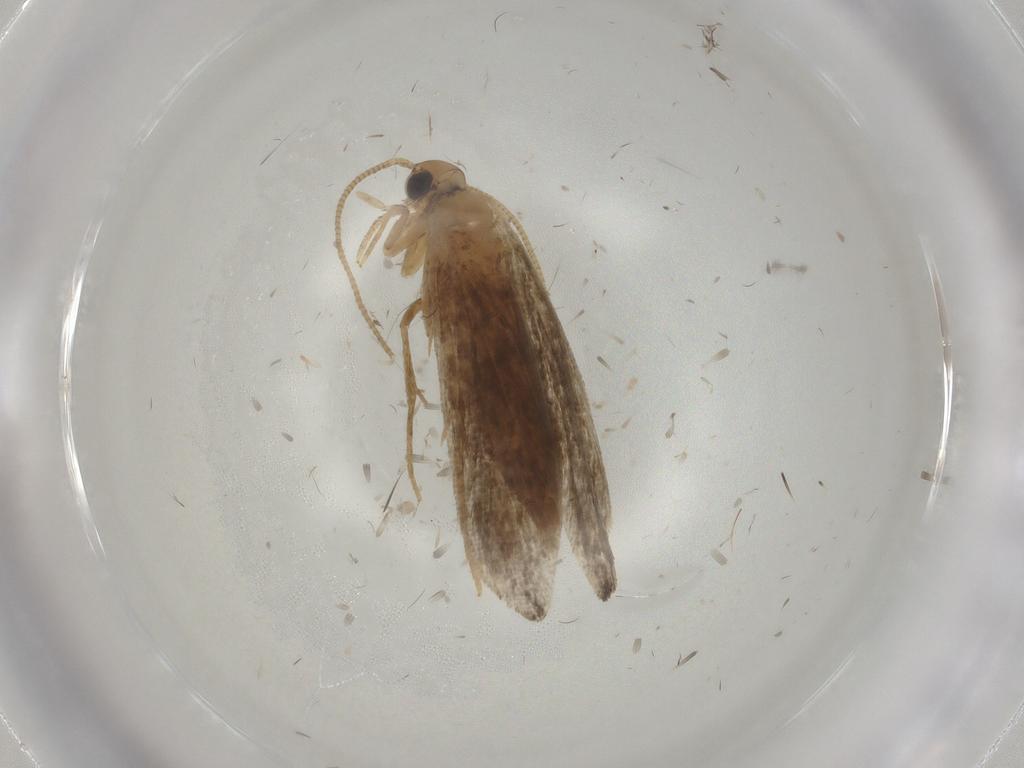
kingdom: Animalia
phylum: Arthropoda
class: Insecta
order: Lepidoptera
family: Tineidae
